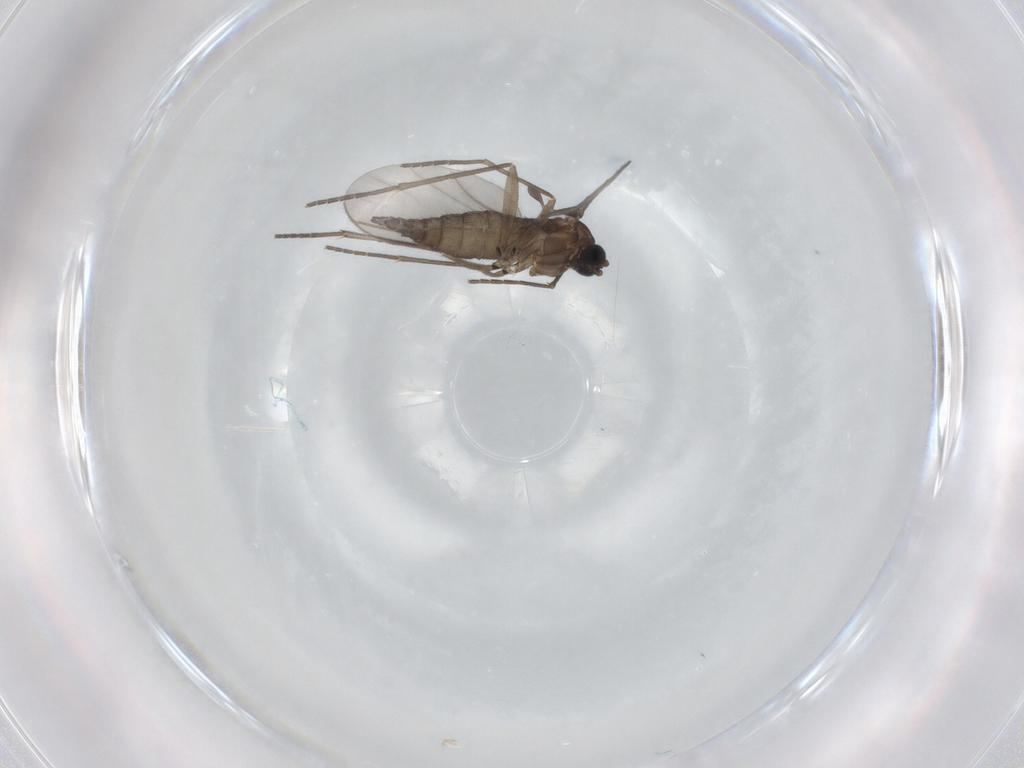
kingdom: Animalia
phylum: Arthropoda
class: Insecta
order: Diptera
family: Sciaridae
